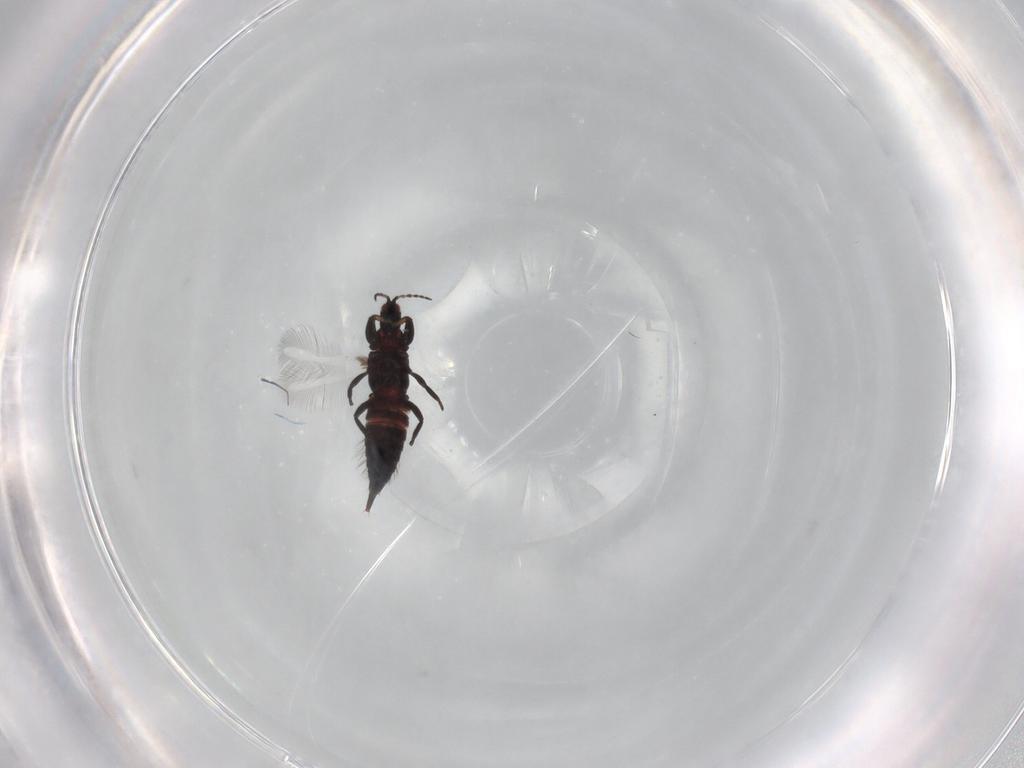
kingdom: Animalia
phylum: Arthropoda
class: Insecta
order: Thysanoptera
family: Phlaeothripidae
